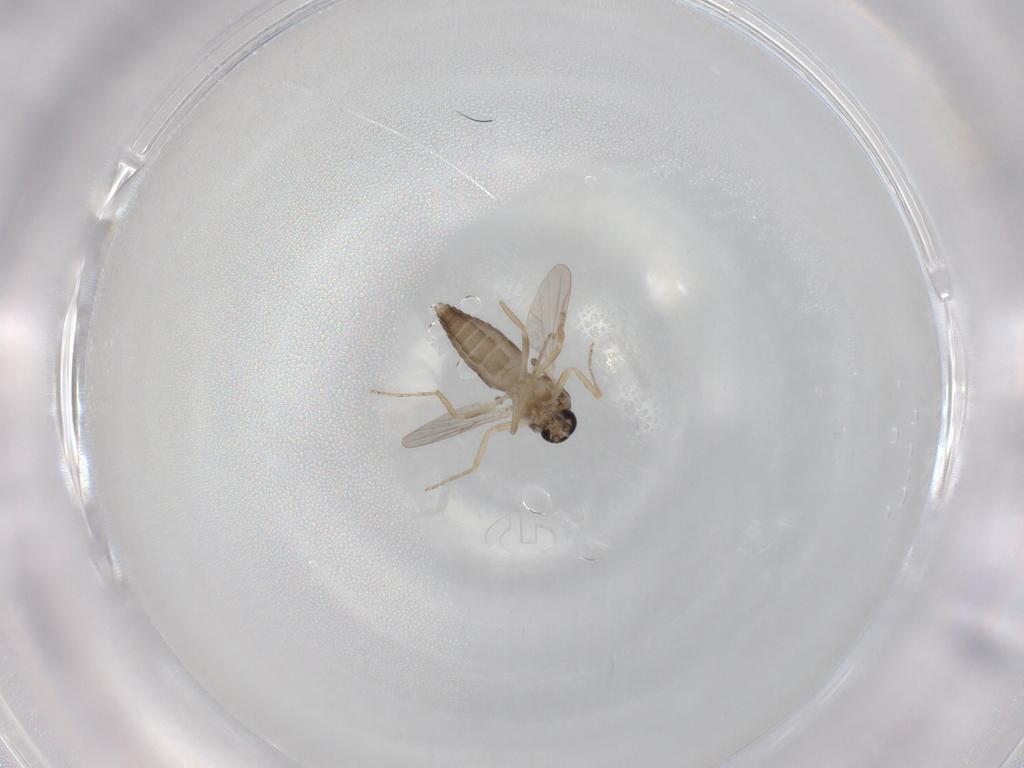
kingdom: Animalia
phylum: Arthropoda
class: Insecta
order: Diptera
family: Ceratopogonidae
